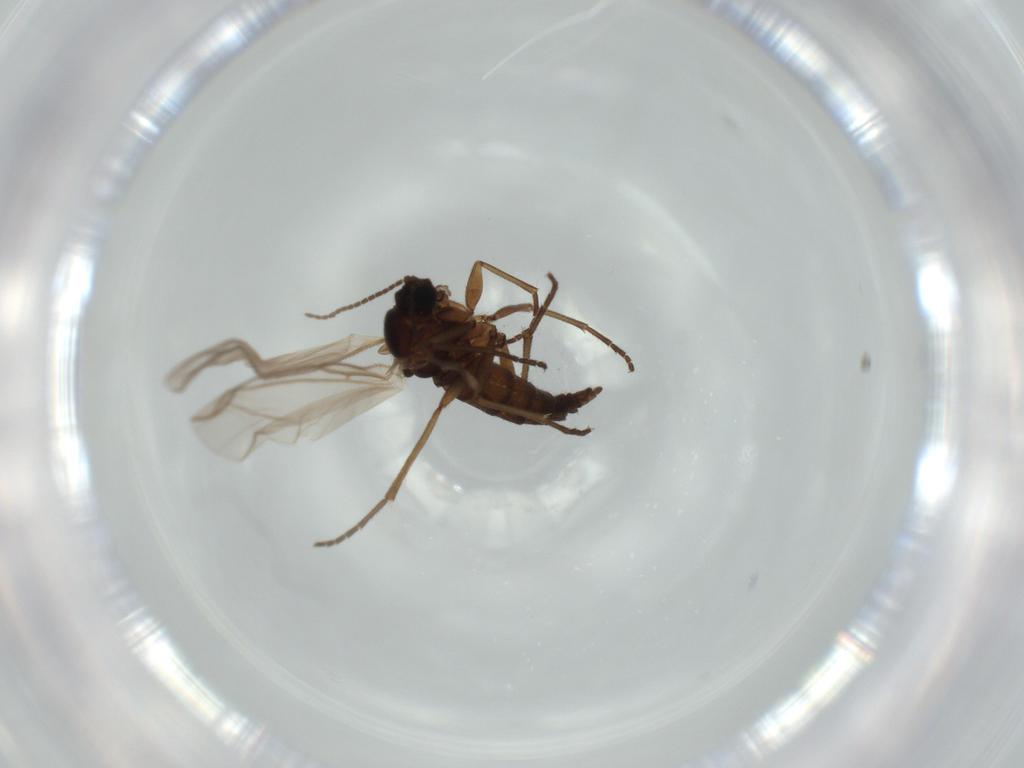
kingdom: Animalia
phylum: Arthropoda
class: Insecta
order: Diptera
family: Sciaridae
